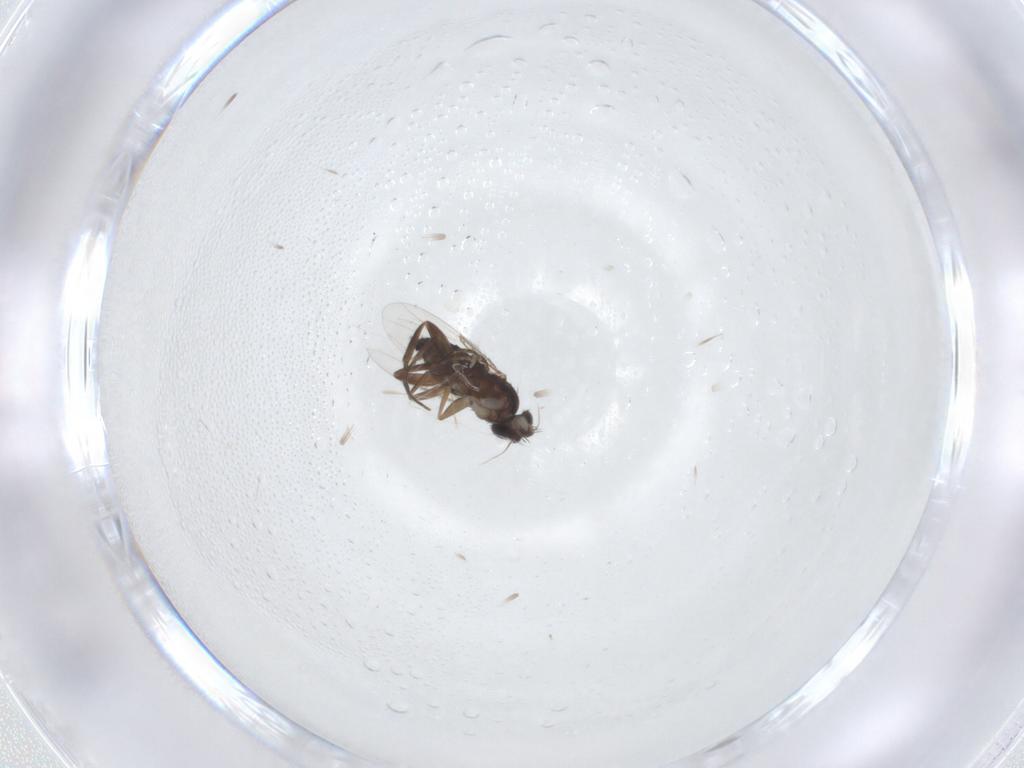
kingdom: Animalia
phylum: Arthropoda
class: Insecta
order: Diptera
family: Phoridae
